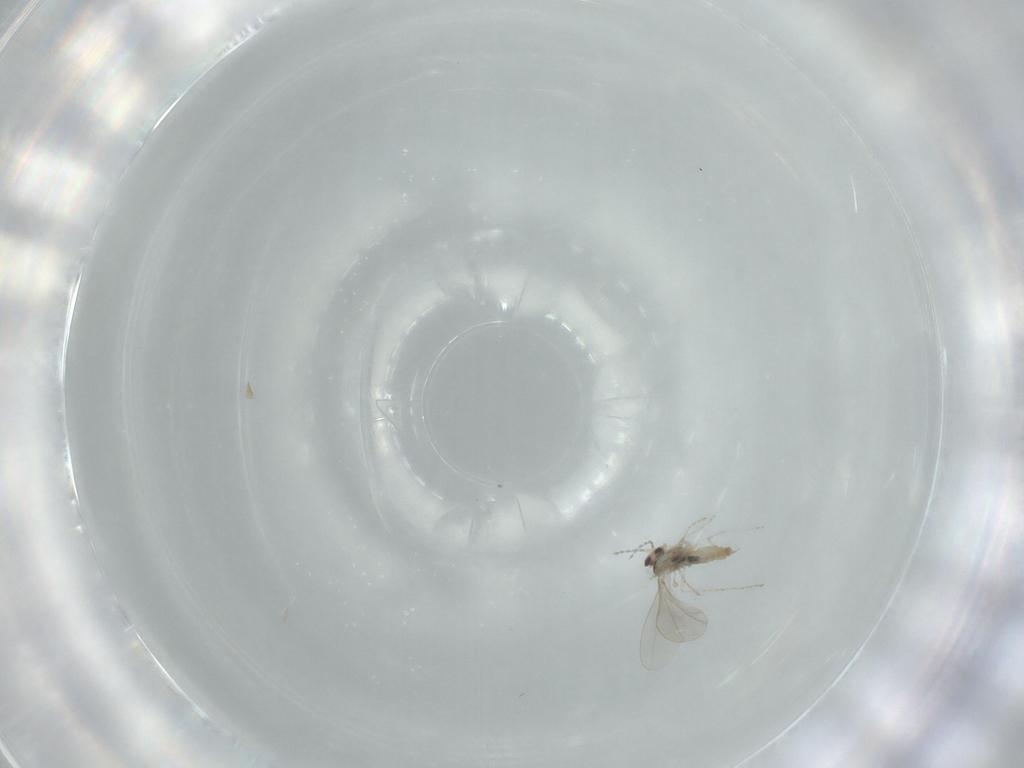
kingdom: Animalia
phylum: Arthropoda
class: Insecta
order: Diptera
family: Cecidomyiidae
